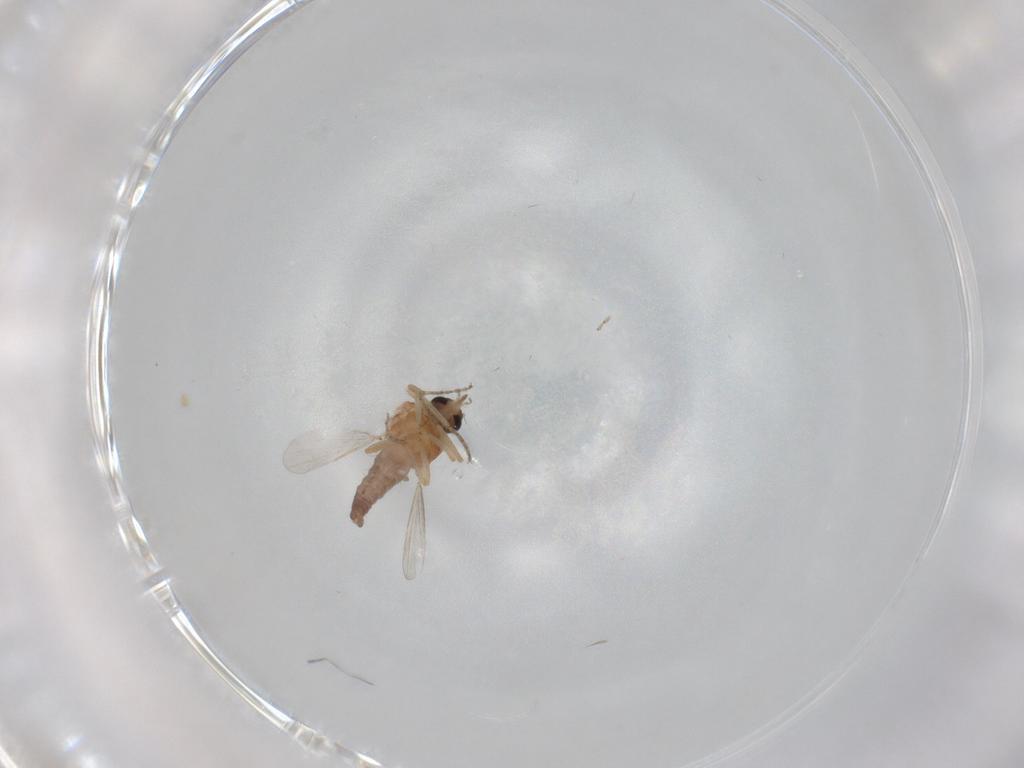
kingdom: Animalia
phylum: Arthropoda
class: Insecta
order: Diptera
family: Ceratopogonidae
